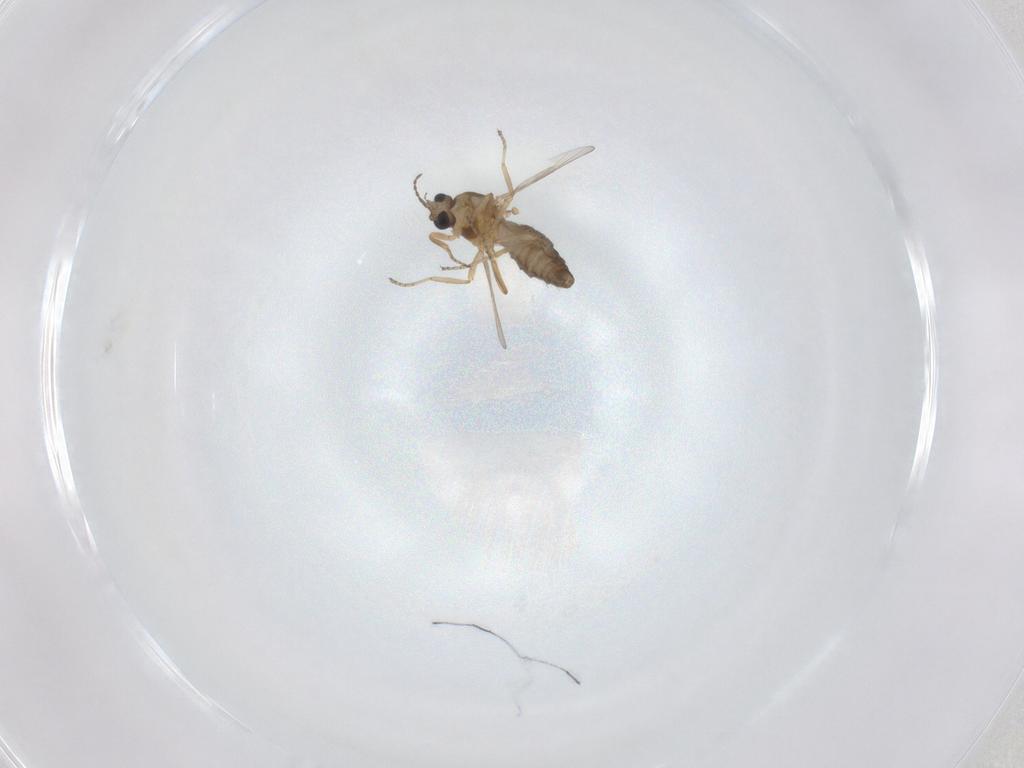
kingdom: Animalia
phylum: Arthropoda
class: Insecta
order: Diptera
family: Ceratopogonidae
